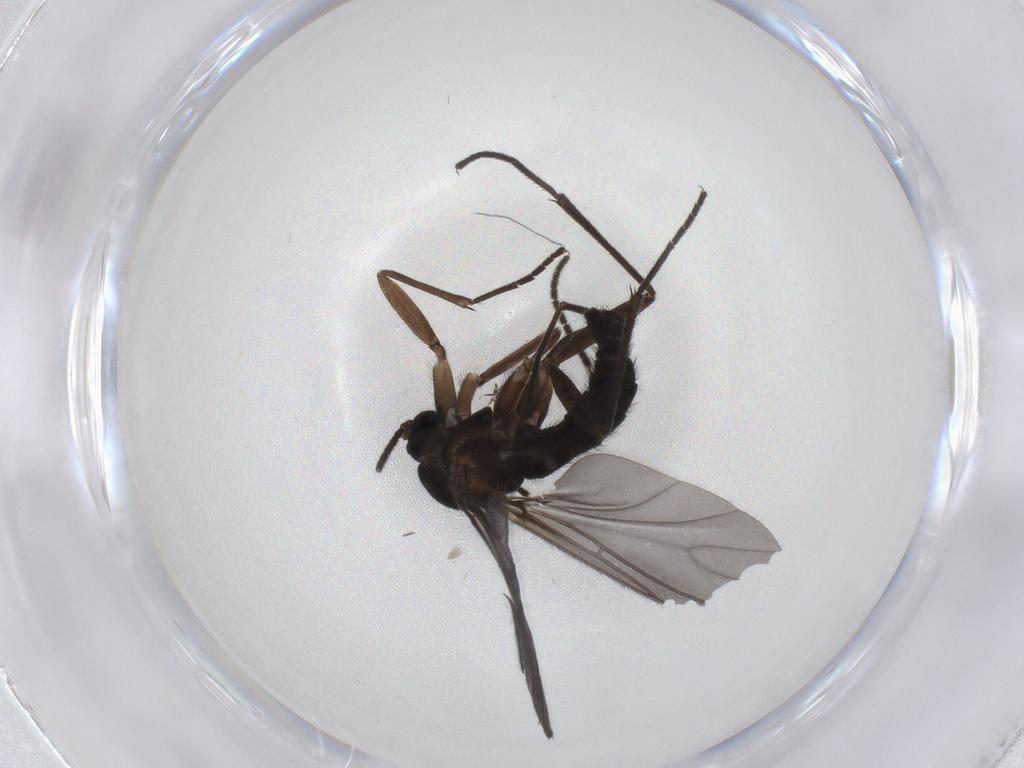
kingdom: Animalia
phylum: Arthropoda
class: Insecta
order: Diptera
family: Sciaridae
